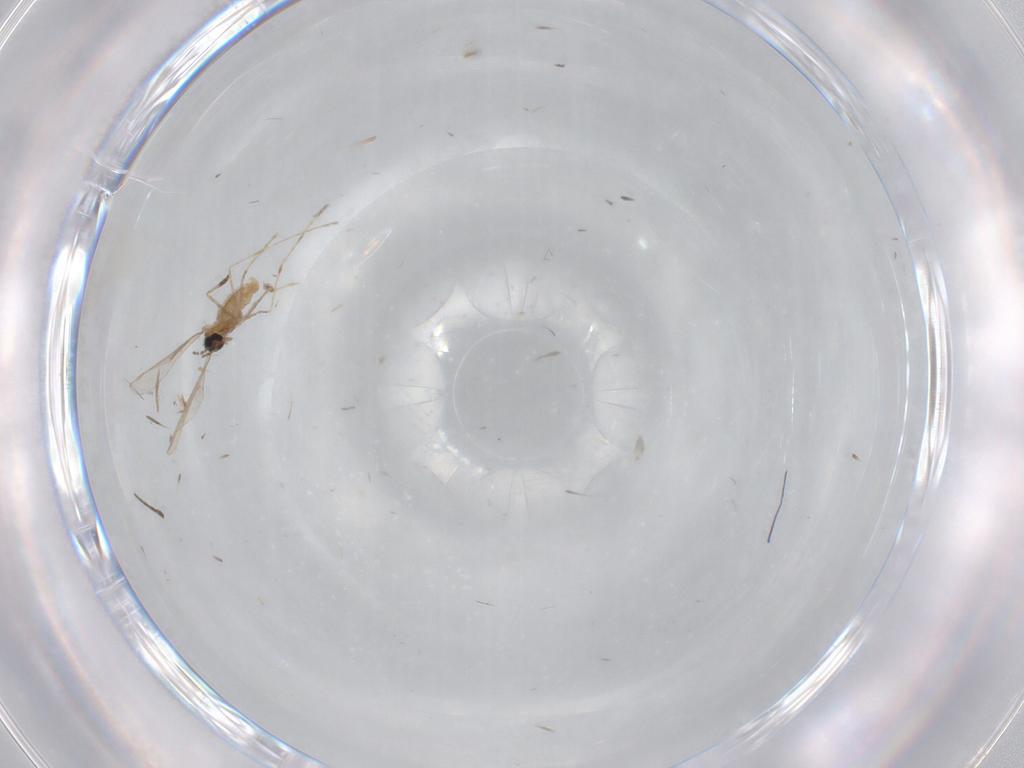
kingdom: Animalia
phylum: Arthropoda
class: Insecta
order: Diptera
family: Cecidomyiidae
